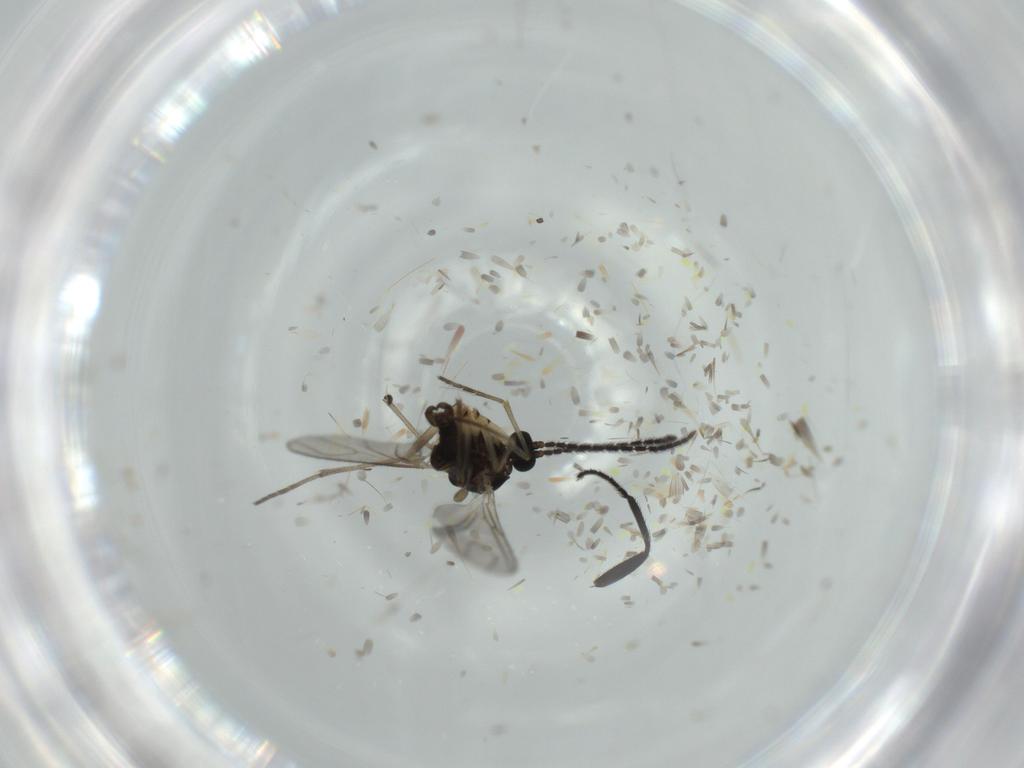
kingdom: Animalia
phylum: Arthropoda
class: Insecta
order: Diptera
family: Sciaridae
